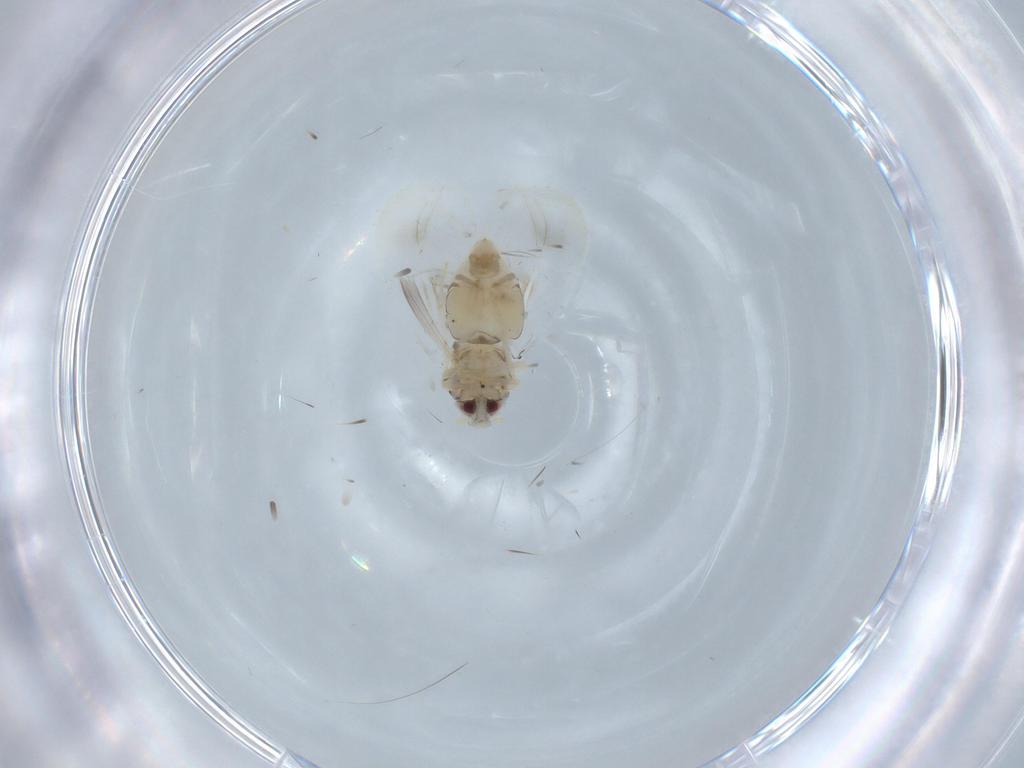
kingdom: Animalia
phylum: Arthropoda
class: Insecta
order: Hemiptera
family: Aleyrodidae
